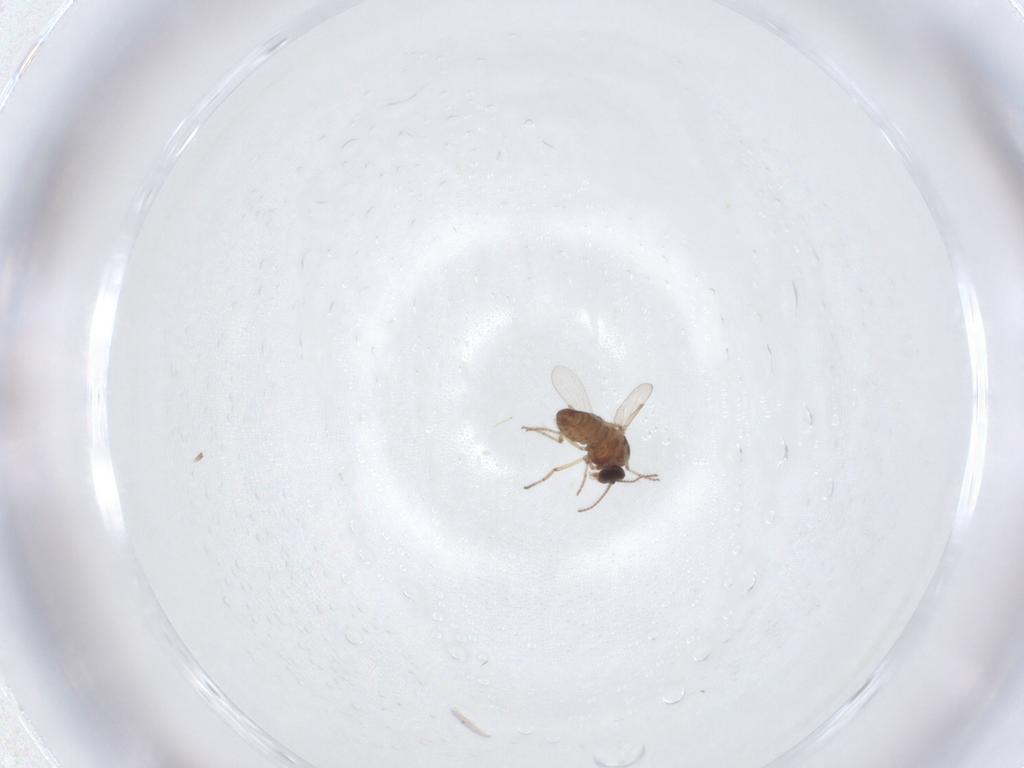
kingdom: Animalia
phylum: Arthropoda
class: Insecta
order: Diptera
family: Ceratopogonidae
